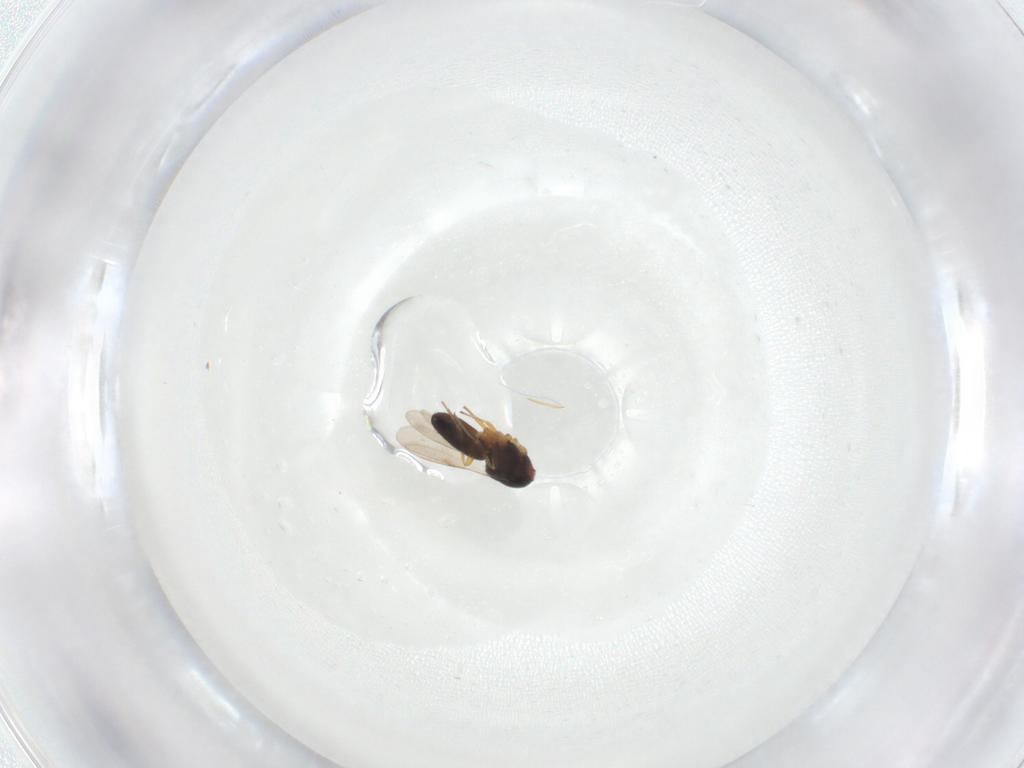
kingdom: Animalia
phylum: Arthropoda
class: Insecta
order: Hymenoptera
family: Scelionidae
